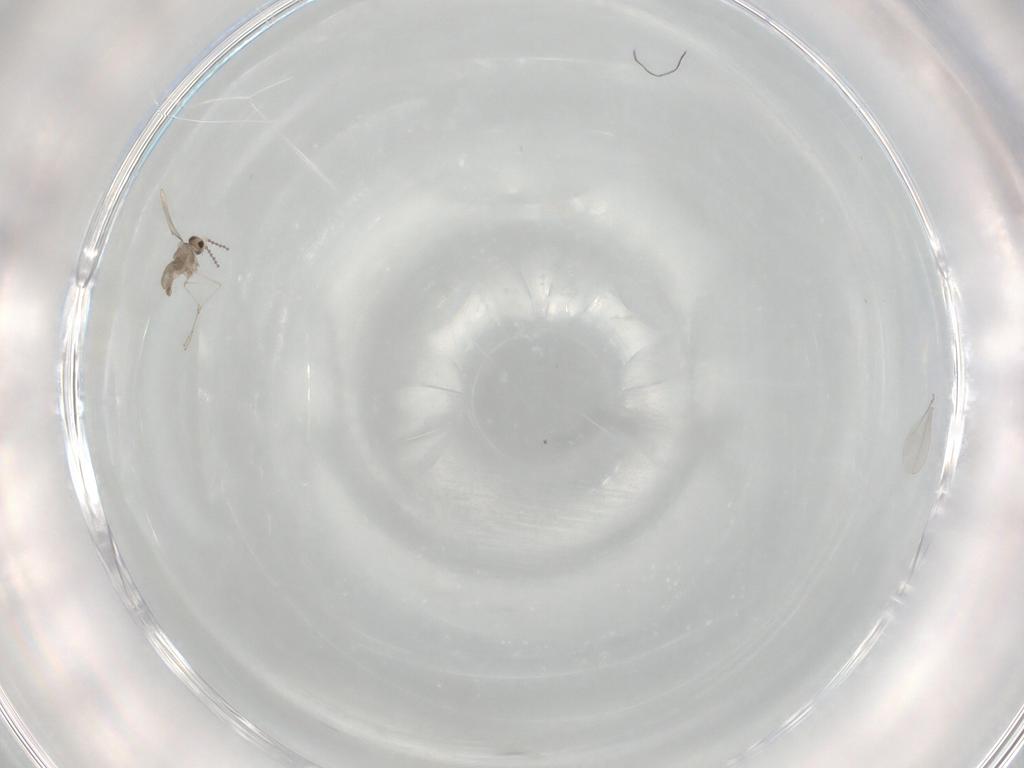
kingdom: Animalia
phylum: Arthropoda
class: Insecta
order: Diptera
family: Cecidomyiidae
